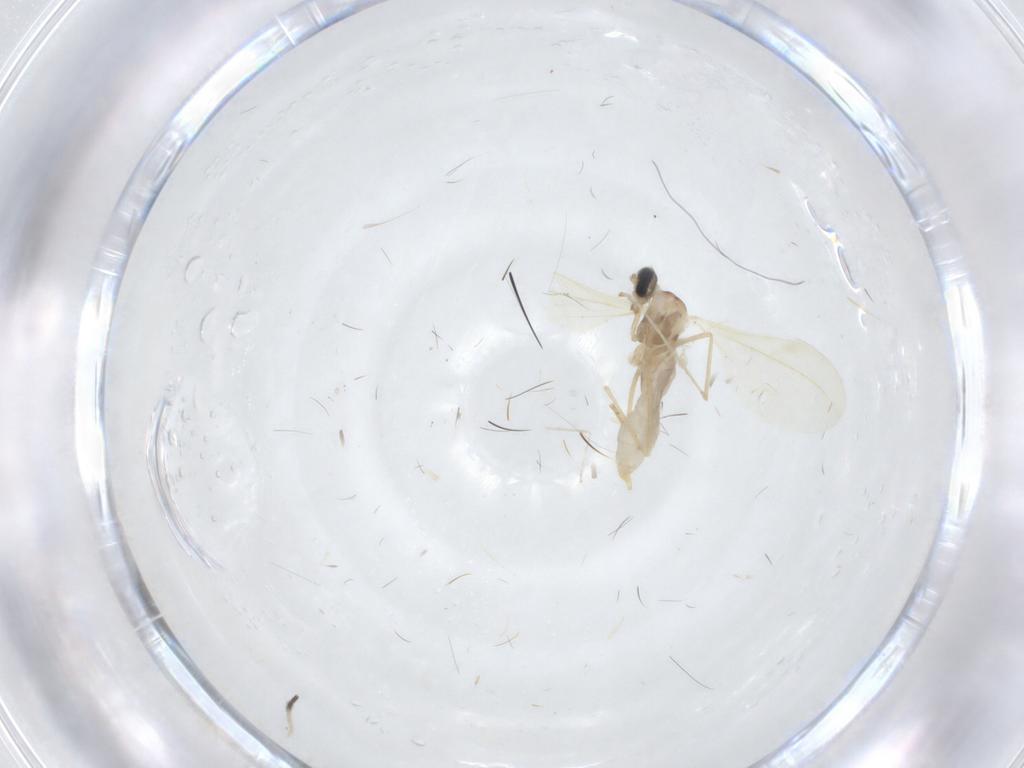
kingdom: Animalia
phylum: Arthropoda
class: Insecta
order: Diptera
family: Cecidomyiidae
